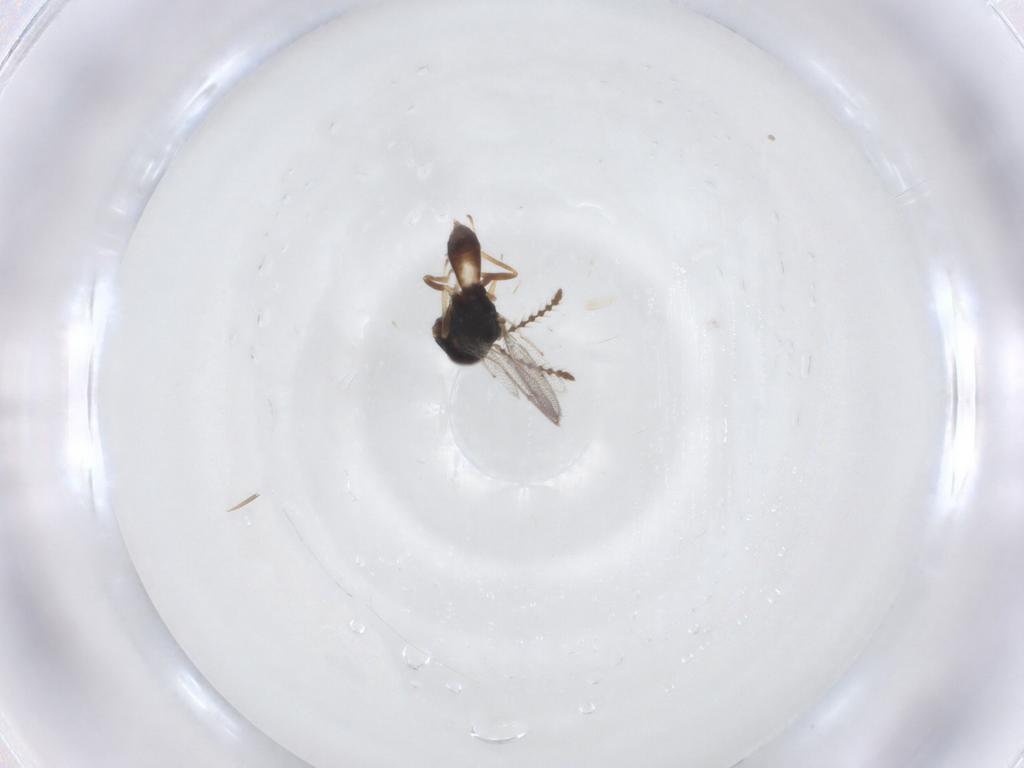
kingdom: Animalia
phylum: Arthropoda
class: Insecta
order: Hymenoptera
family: Pteromalidae
